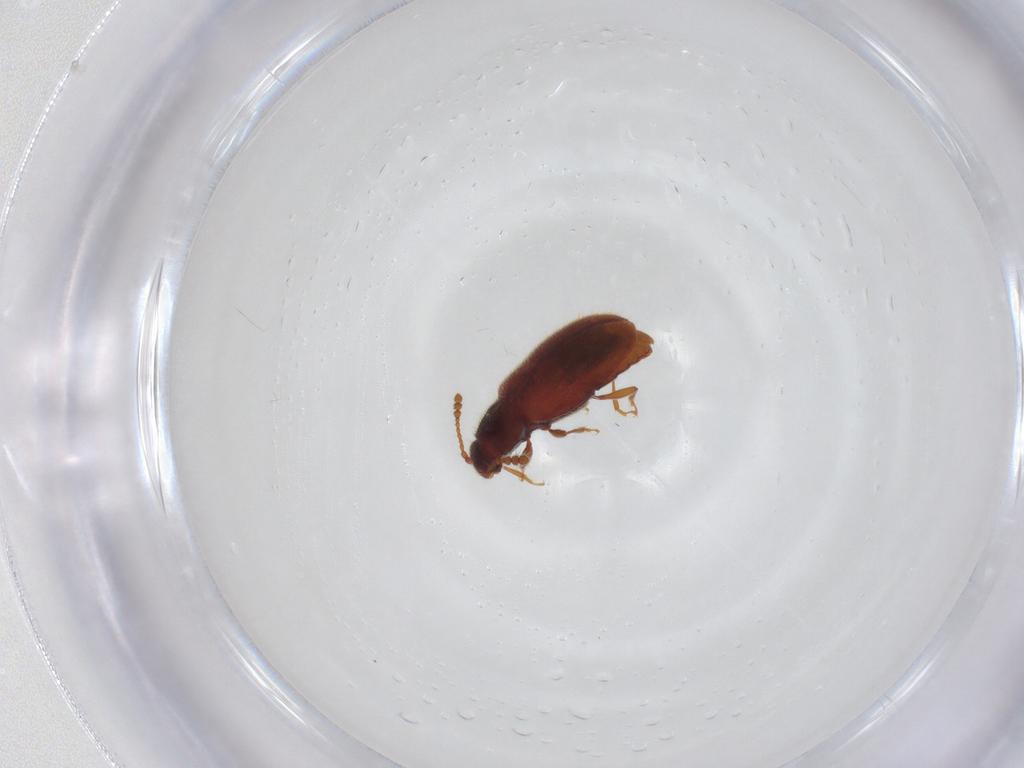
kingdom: Animalia
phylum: Arthropoda
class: Insecta
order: Coleoptera
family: Cryptophagidae
